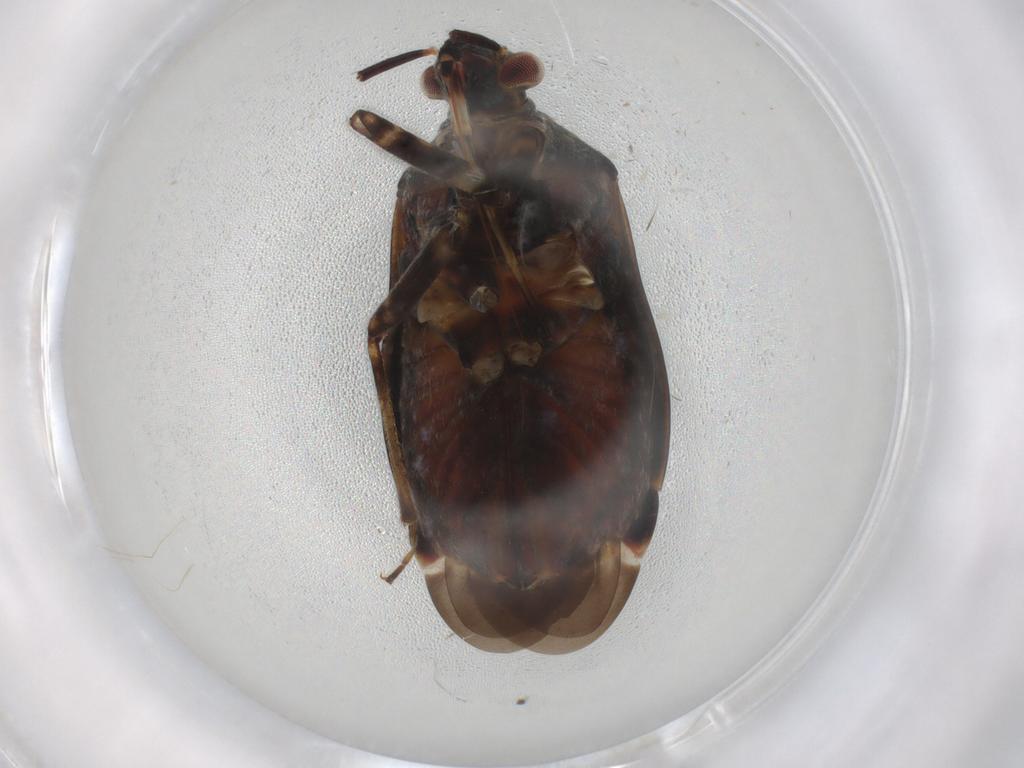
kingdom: Animalia
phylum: Arthropoda
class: Insecta
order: Hemiptera
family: Miridae
